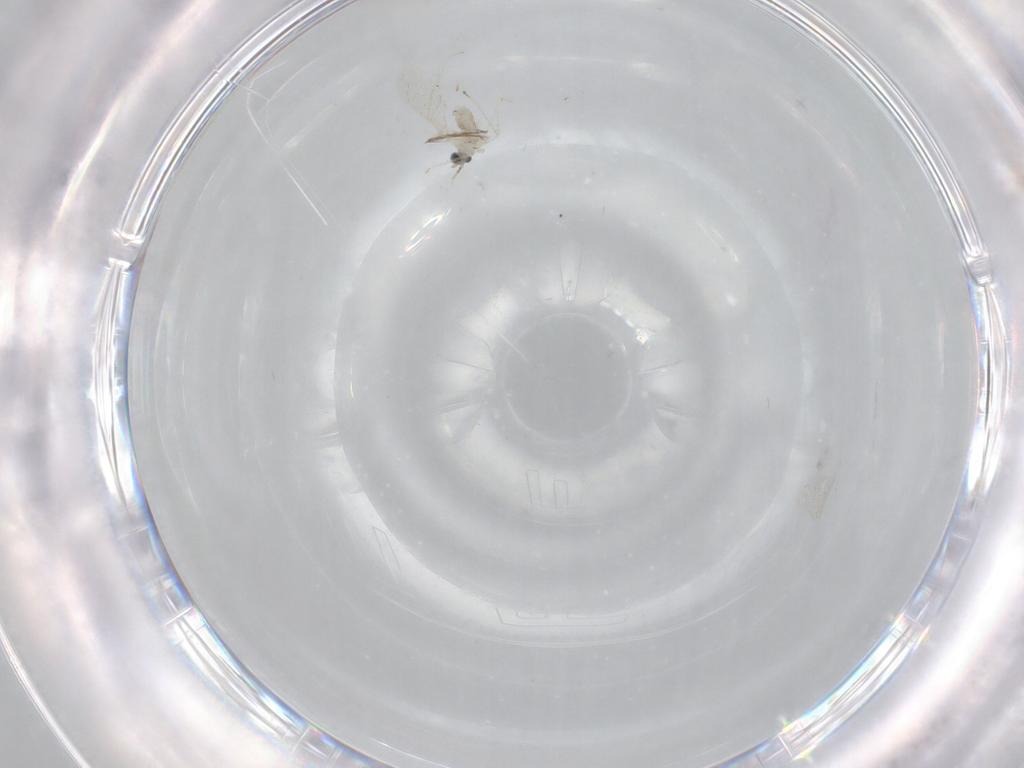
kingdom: Animalia
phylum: Arthropoda
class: Insecta
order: Diptera
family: Cecidomyiidae
